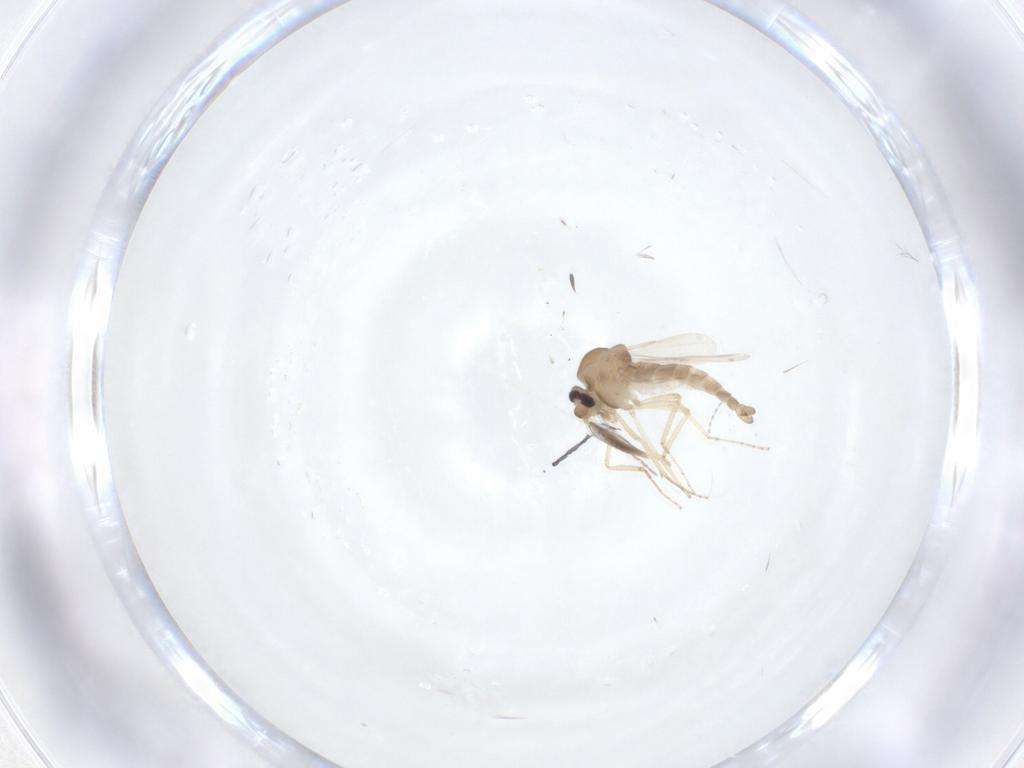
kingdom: Animalia
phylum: Arthropoda
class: Insecta
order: Diptera
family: Ceratopogonidae
